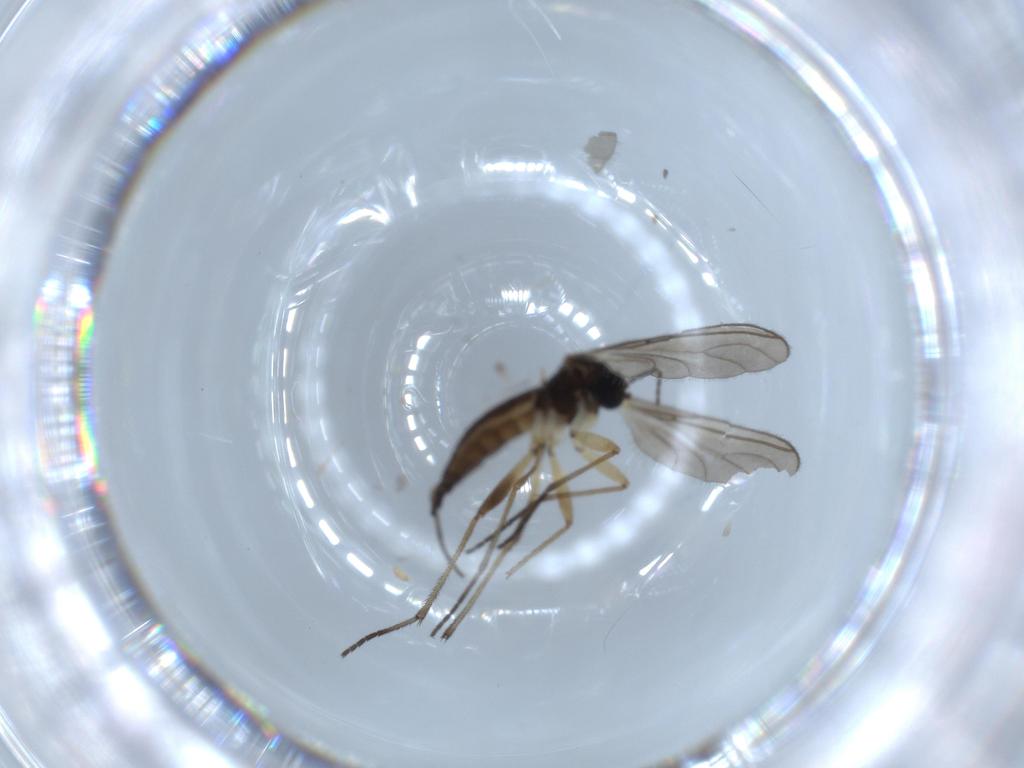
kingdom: Animalia
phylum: Arthropoda
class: Insecta
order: Diptera
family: Sciaridae
